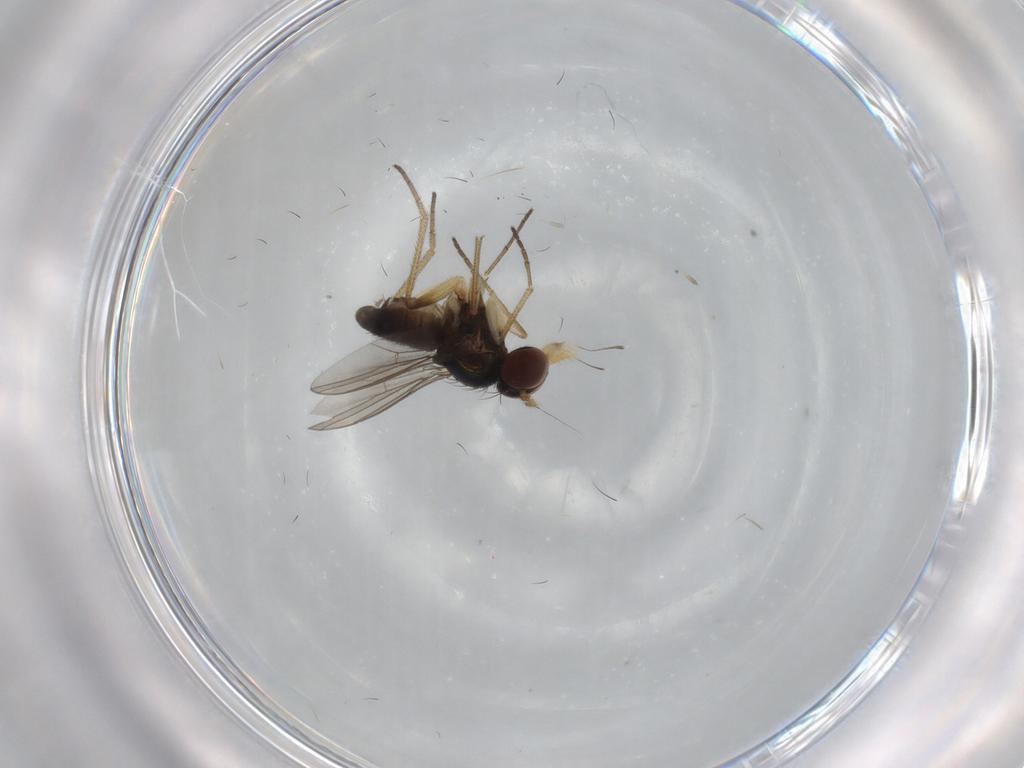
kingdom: Animalia
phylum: Arthropoda
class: Insecta
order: Diptera
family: Dolichopodidae
